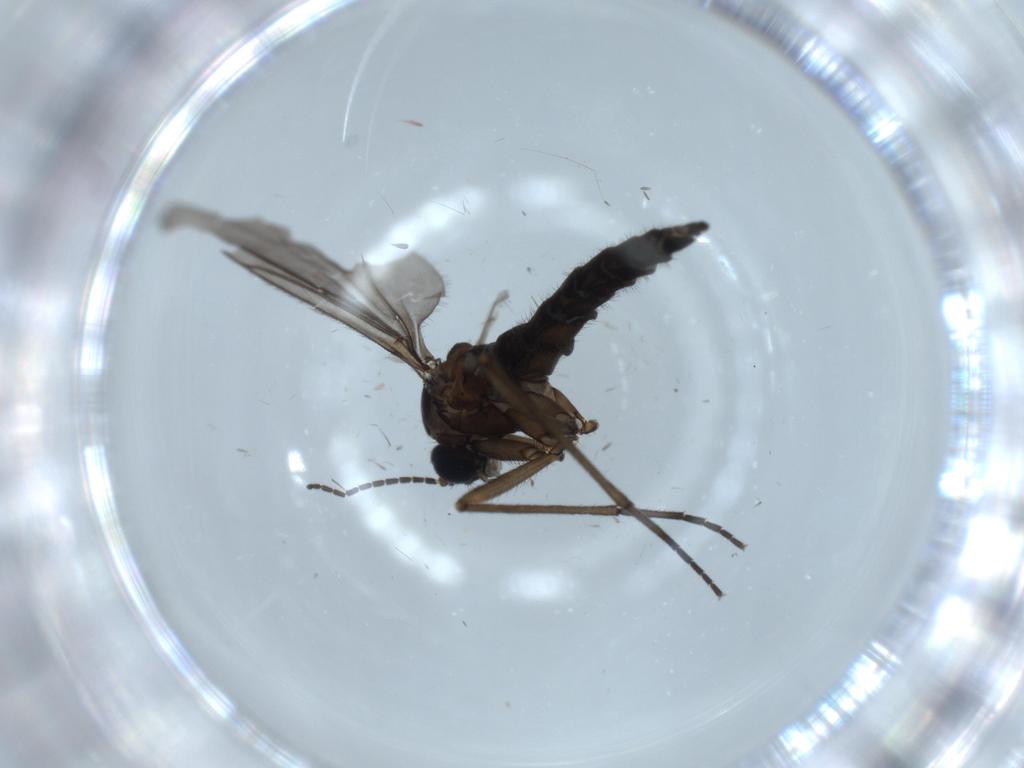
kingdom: Animalia
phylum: Arthropoda
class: Insecta
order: Diptera
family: Sciaridae
